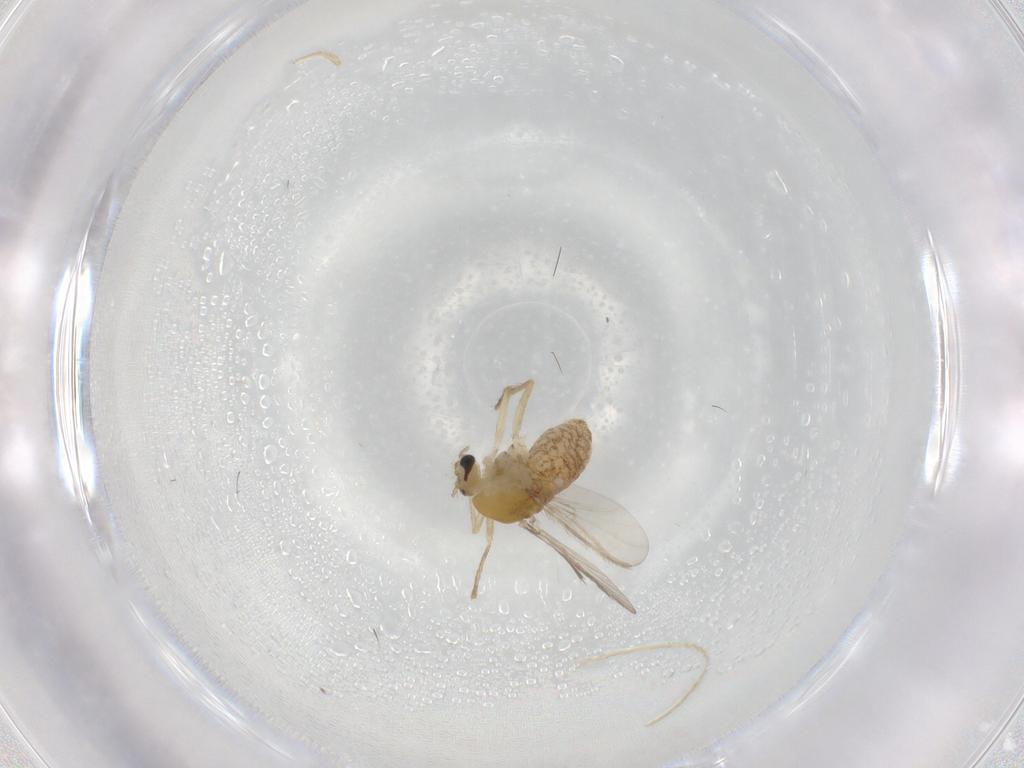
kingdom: Animalia
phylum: Arthropoda
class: Insecta
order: Diptera
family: Chironomidae
